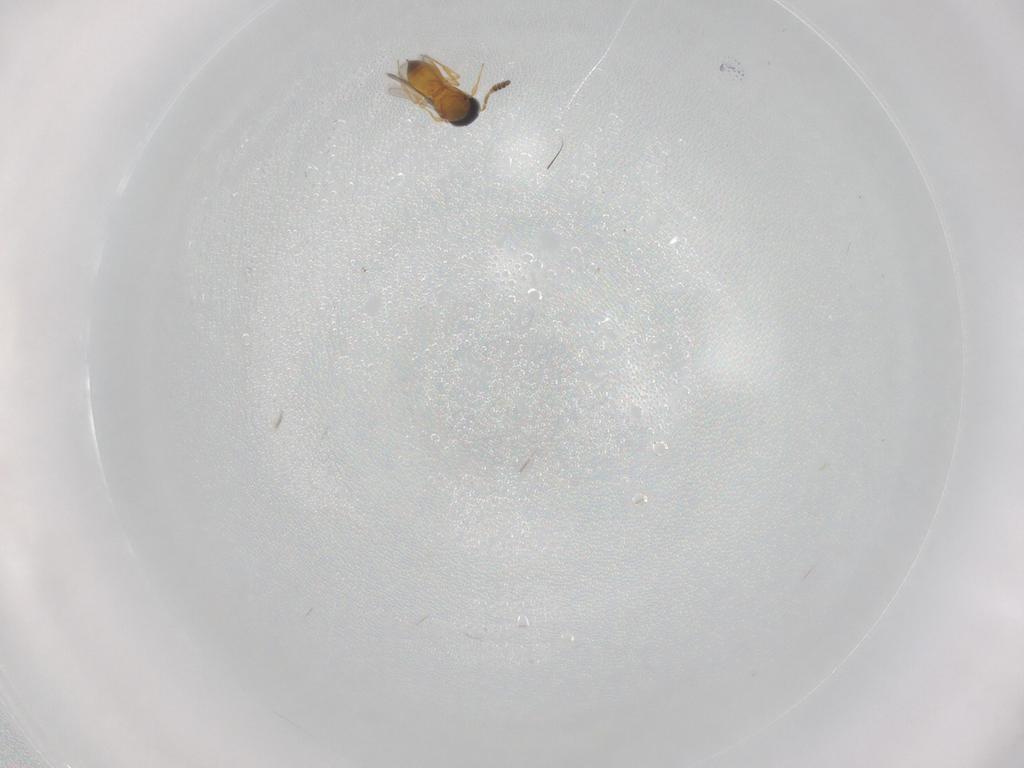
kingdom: Animalia
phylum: Arthropoda
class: Insecta
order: Hymenoptera
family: Scelionidae
